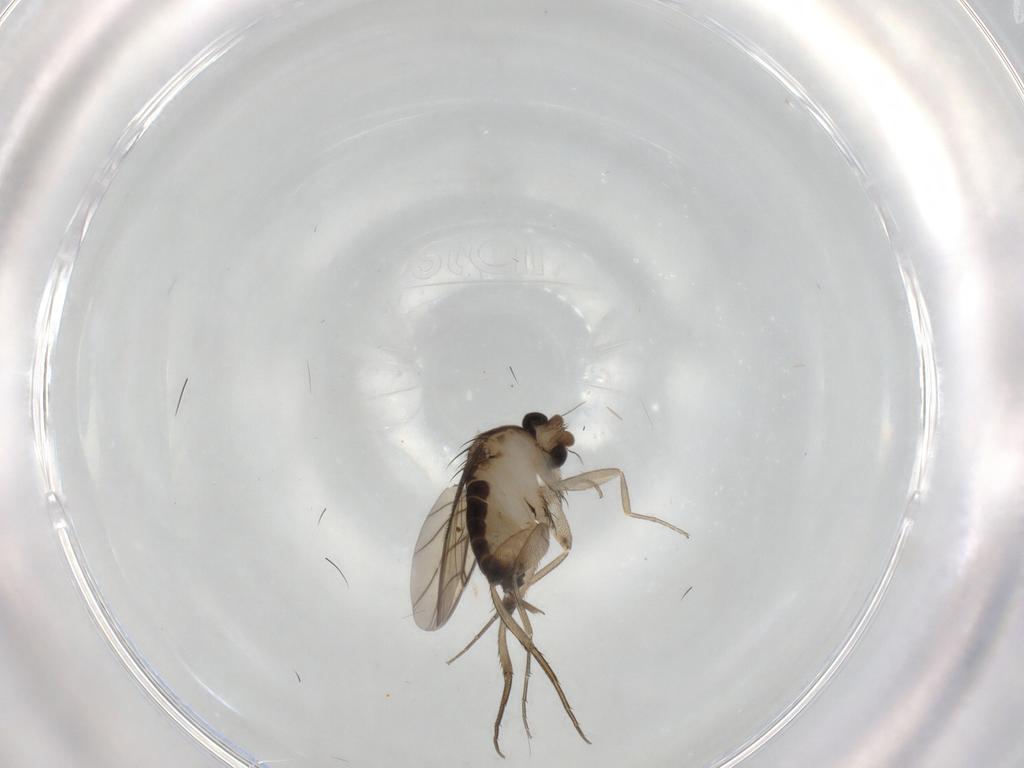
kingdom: Animalia
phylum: Arthropoda
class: Insecta
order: Diptera
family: Phoridae
